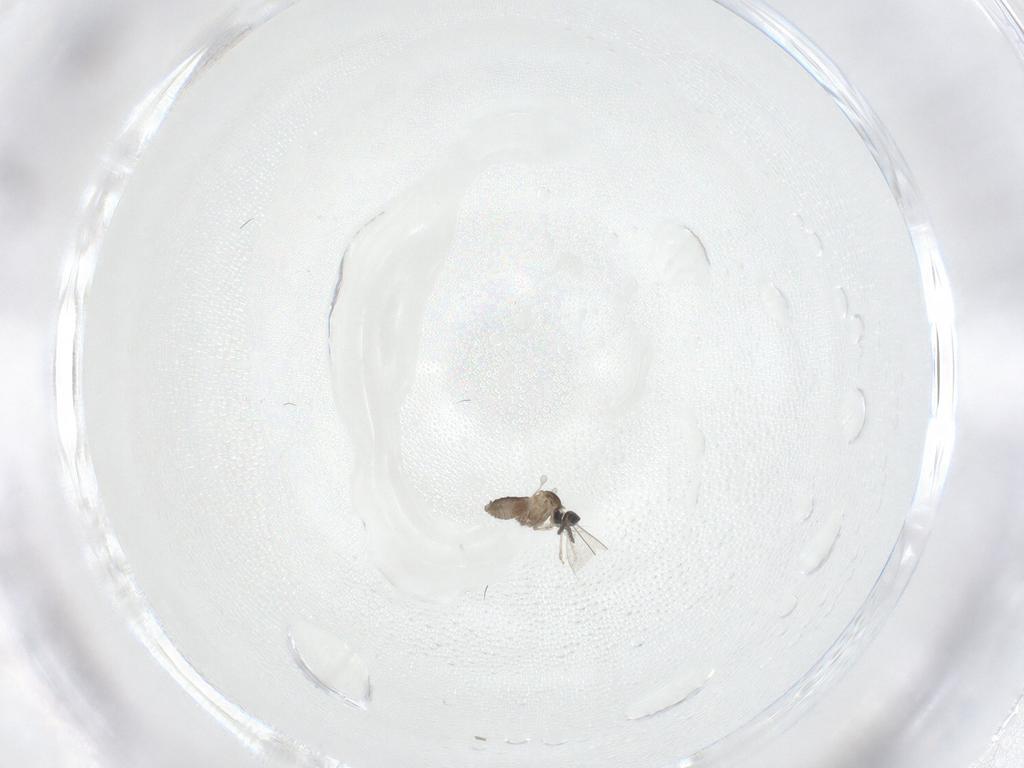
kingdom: Animalia
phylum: Arthropoda
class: Insecta
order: Diptera
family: Cecidomyiidae
